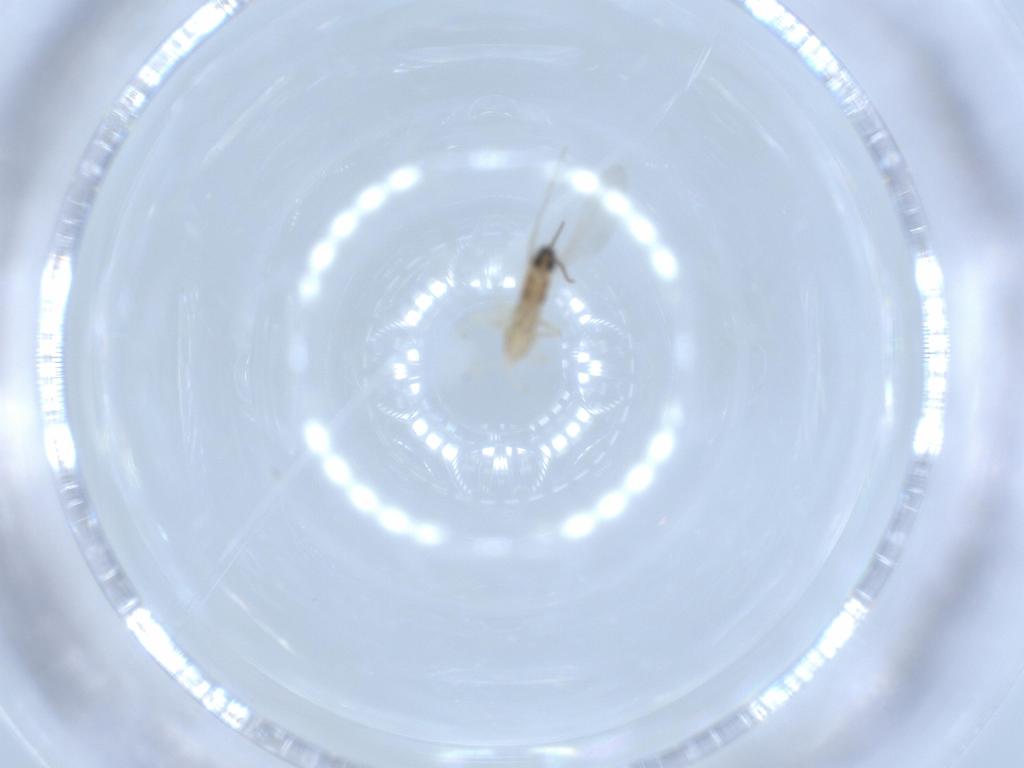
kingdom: Animalia
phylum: Arthropoda
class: Insecta
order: Diptera
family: Cecidomyiidae
